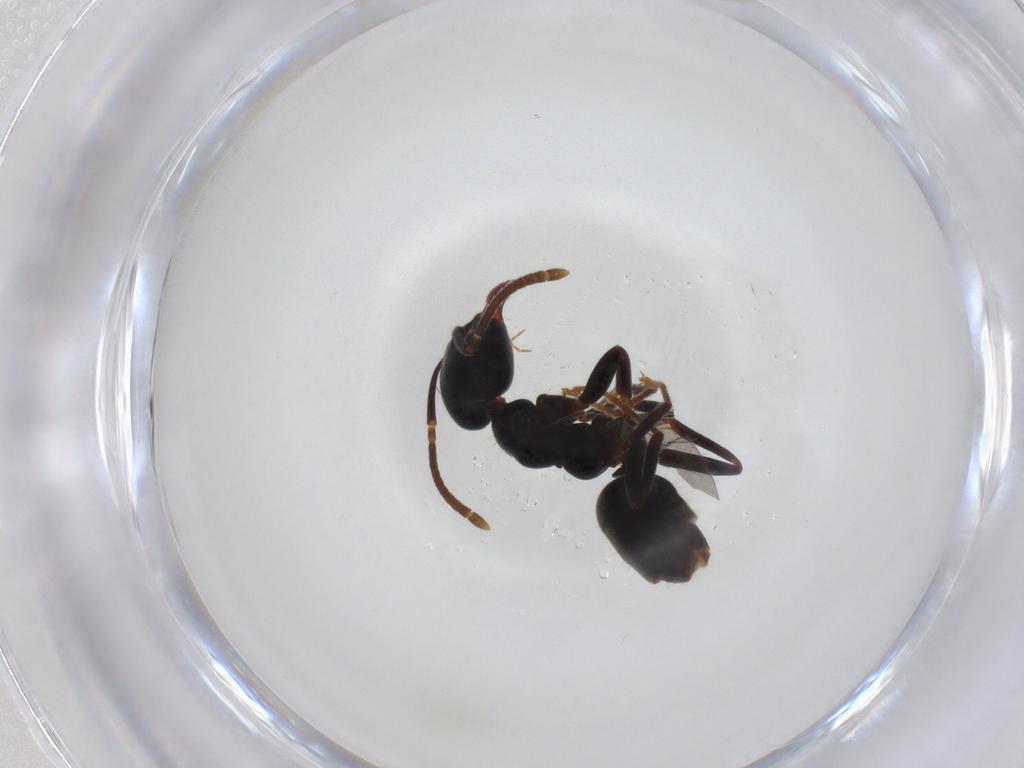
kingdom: Animalia
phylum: Arthropoda
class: Insecta
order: Hymenoptera
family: Formicidae
